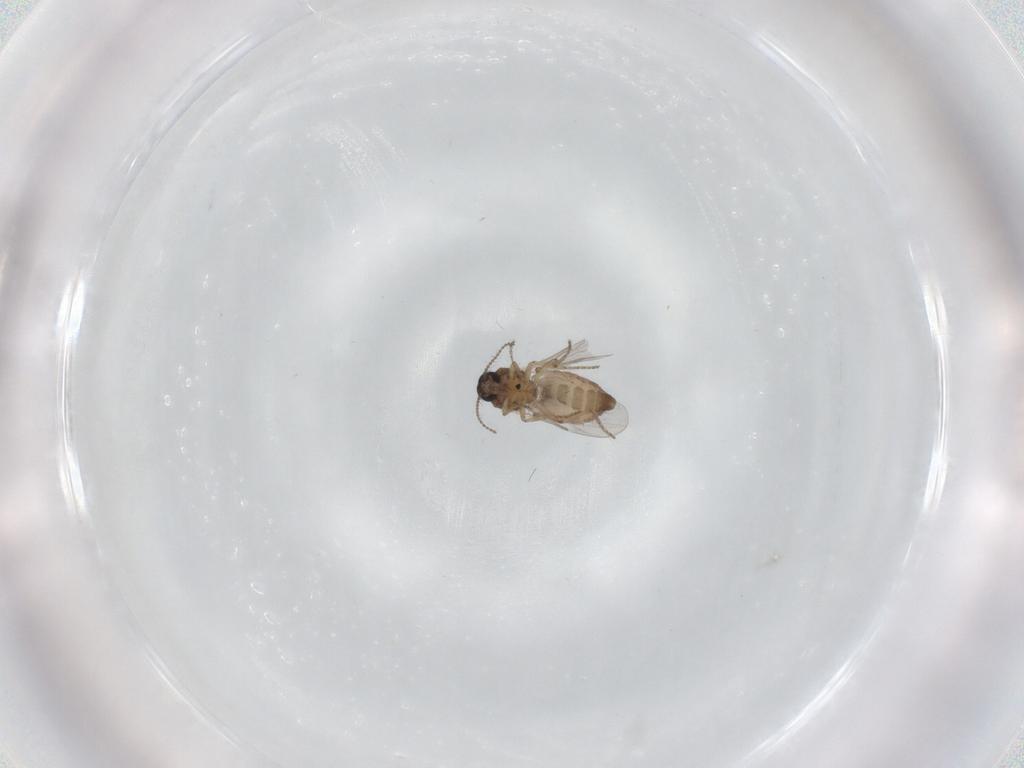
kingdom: Animalia
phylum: Arthropoda
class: Insecta
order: Diptera
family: Ceratopogonidae
